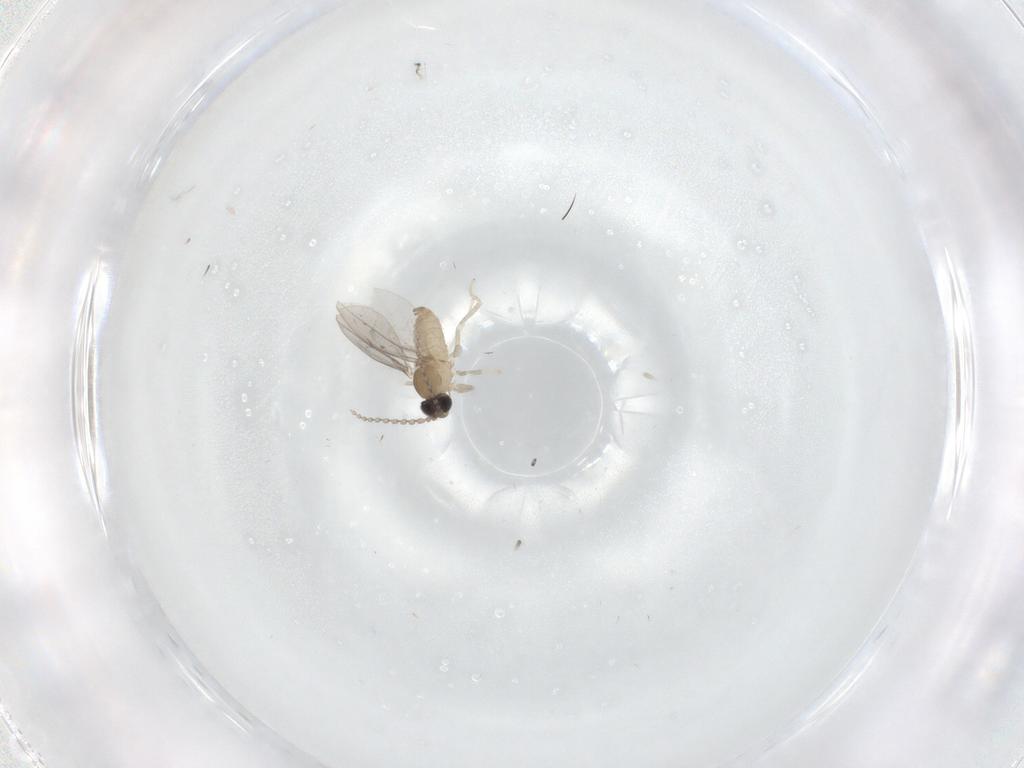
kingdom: Animalia
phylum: Arthropoda
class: Insecta
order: Diptera
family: Cecidomyiidae
